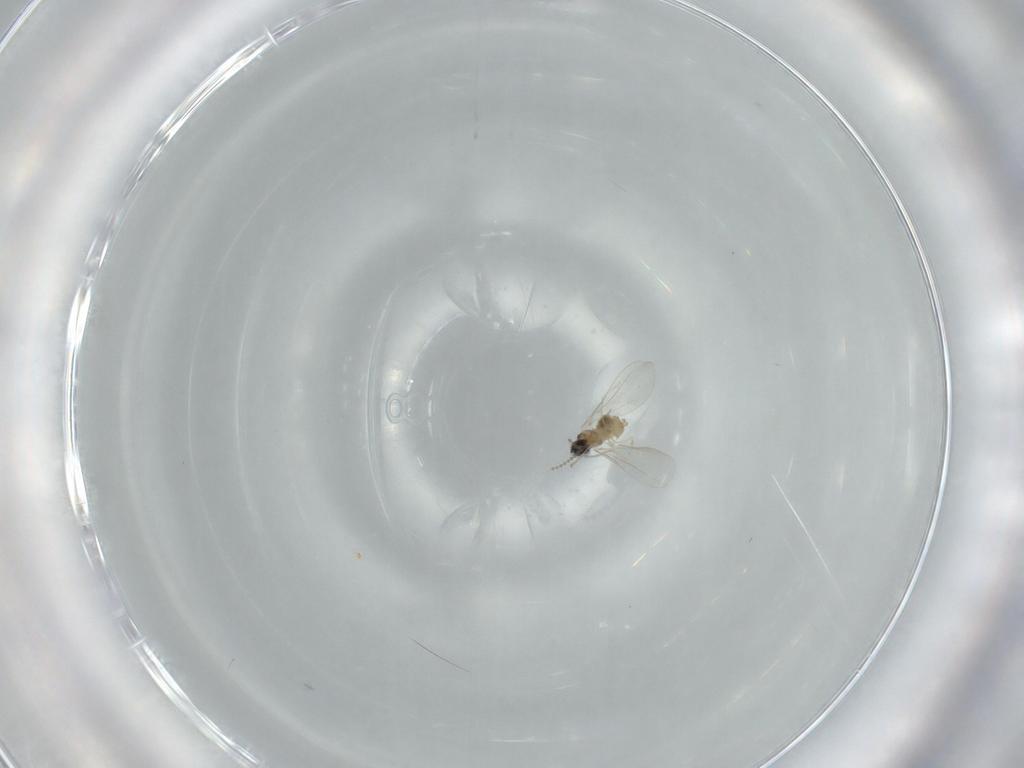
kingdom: Animalia
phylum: Arthropoda
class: Insecta
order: Diptera
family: Cecidomyiidae
